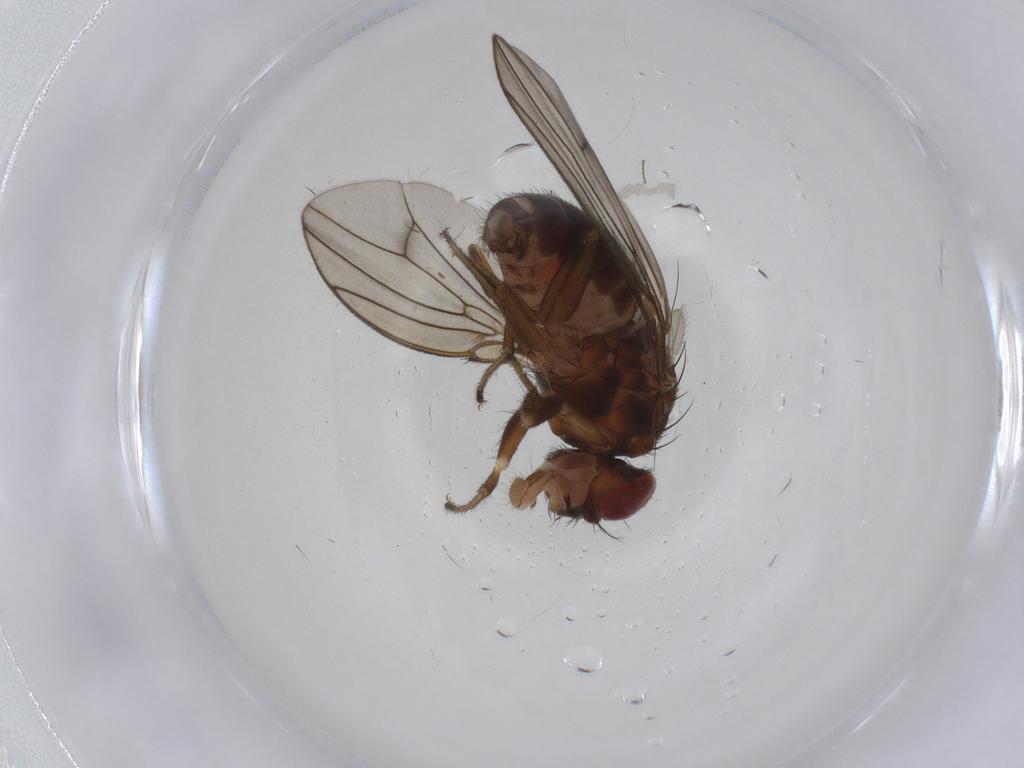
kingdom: Animalia
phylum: Arthropoda
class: Insecta
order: Diptera
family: Drosophilidae
